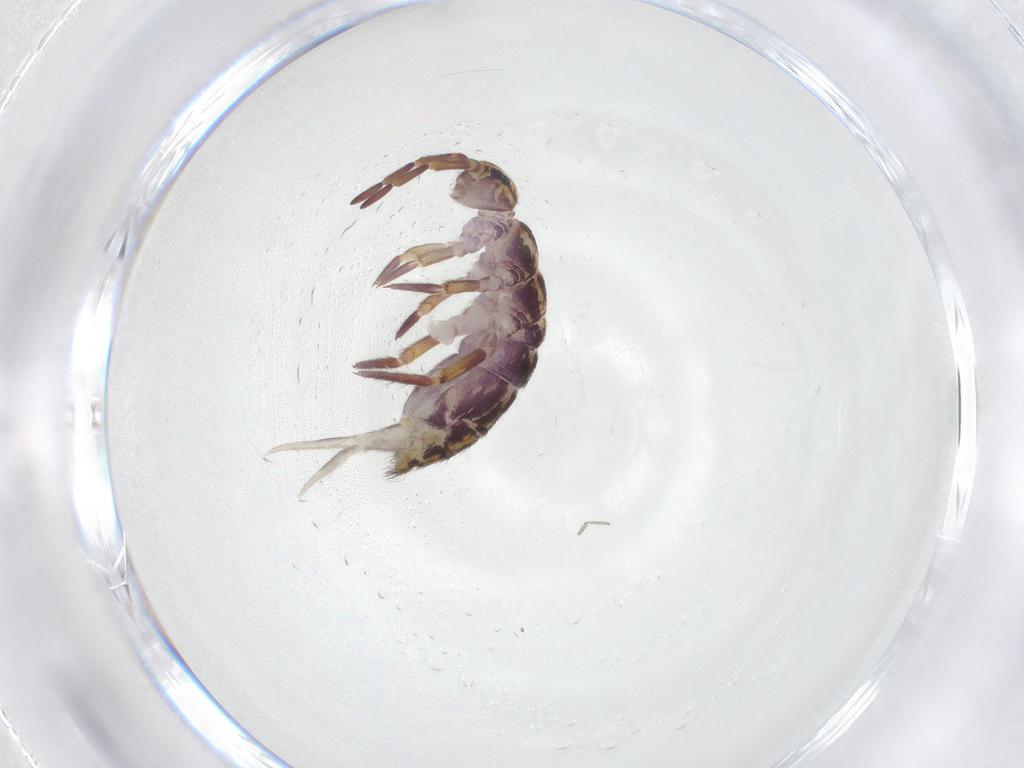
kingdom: Animalia
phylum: Arthropoda
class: Collembola
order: Entomobryomorpha
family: Isotomidae
